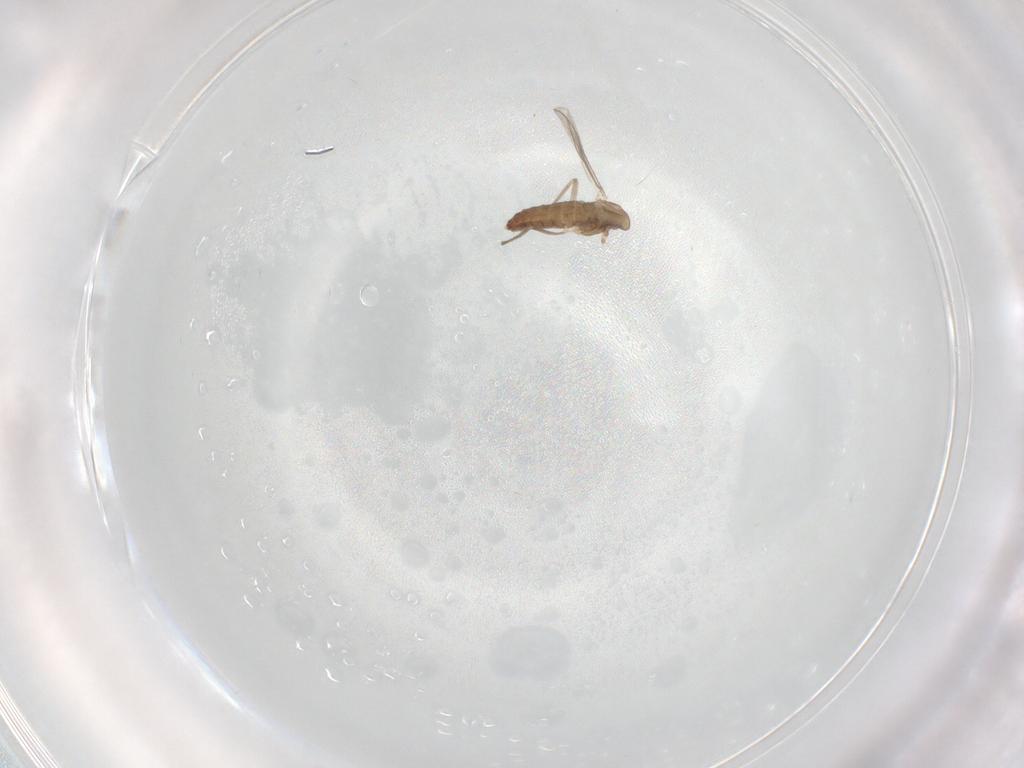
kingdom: Animalia
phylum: Arthropoda
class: Insecta
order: Diptera
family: Chironomidae
